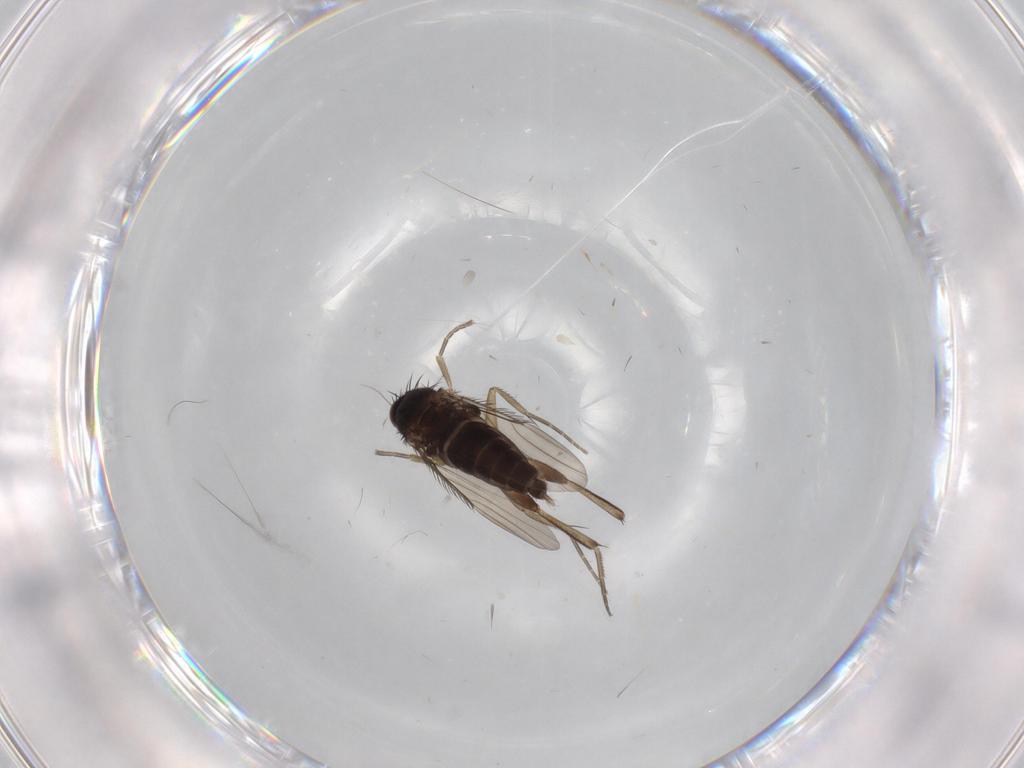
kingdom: Animalia
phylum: Arthropoda
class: Insecta
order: Diptera
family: Phoridae
